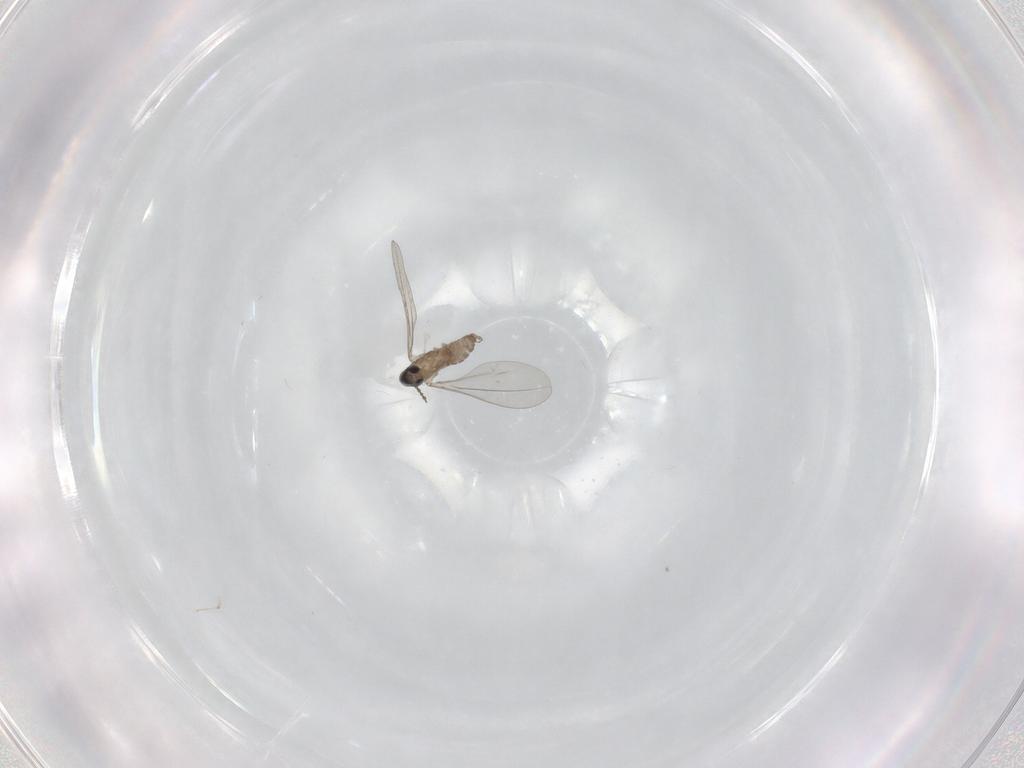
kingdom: Animalia
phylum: Arthropoda
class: Insecta
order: Diptera
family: Cecidomyiidae
